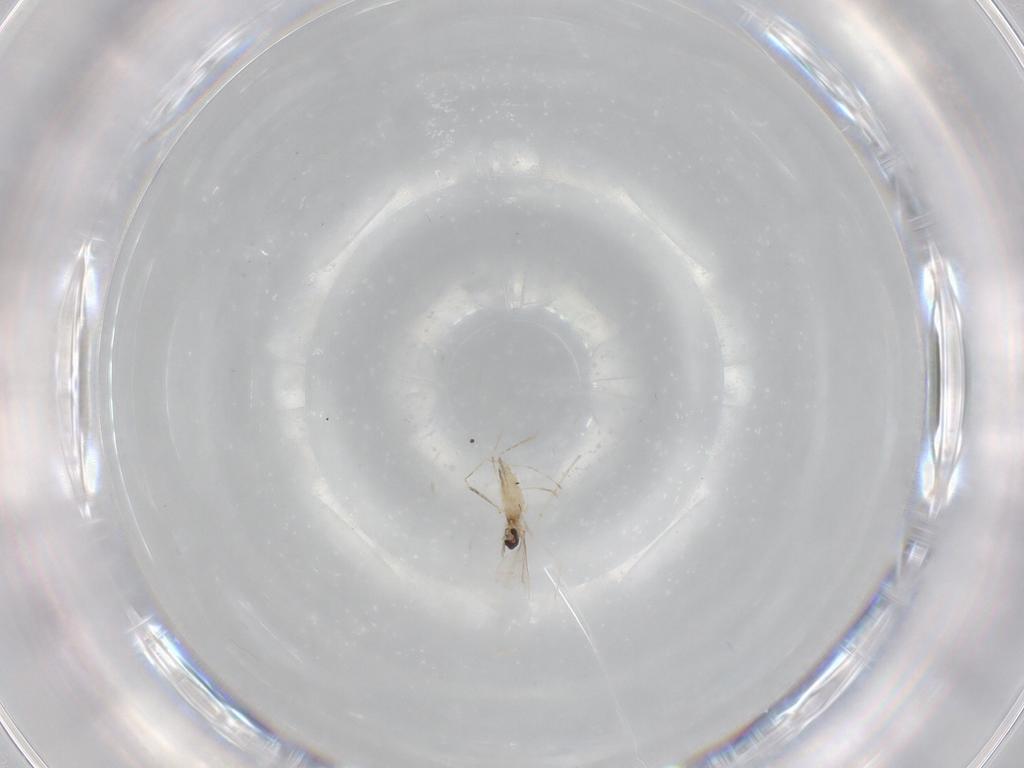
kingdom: Animalia
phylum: Arthropoda
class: Insecta
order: Diptera
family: Cecidomyiidae
